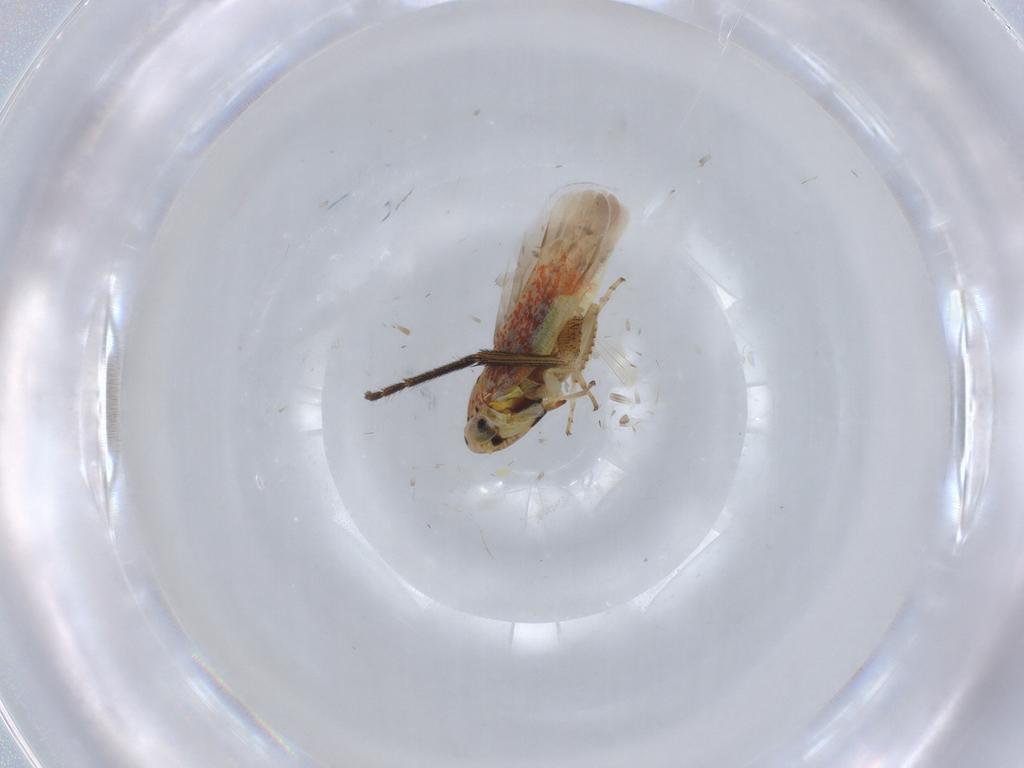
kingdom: Animalia
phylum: Arthropoda
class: Insecta
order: Hemiptera
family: Cicadellidae
